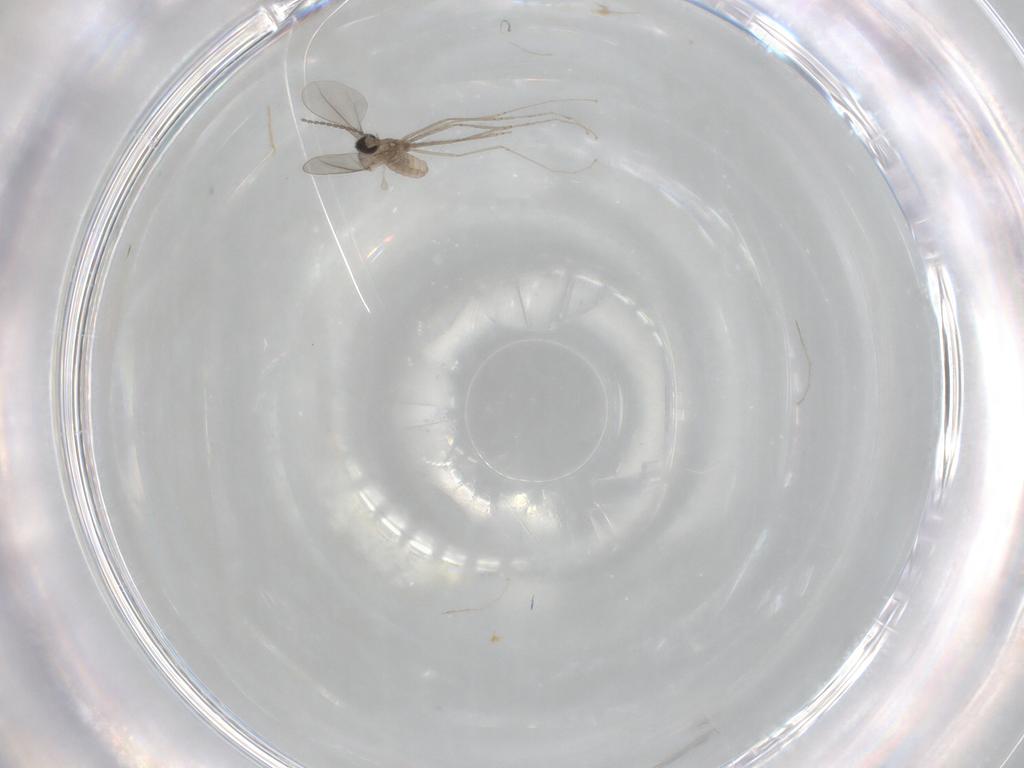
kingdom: Animalia
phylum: Arthropoda
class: Insecta
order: Diptera
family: Cecidomyiidae
